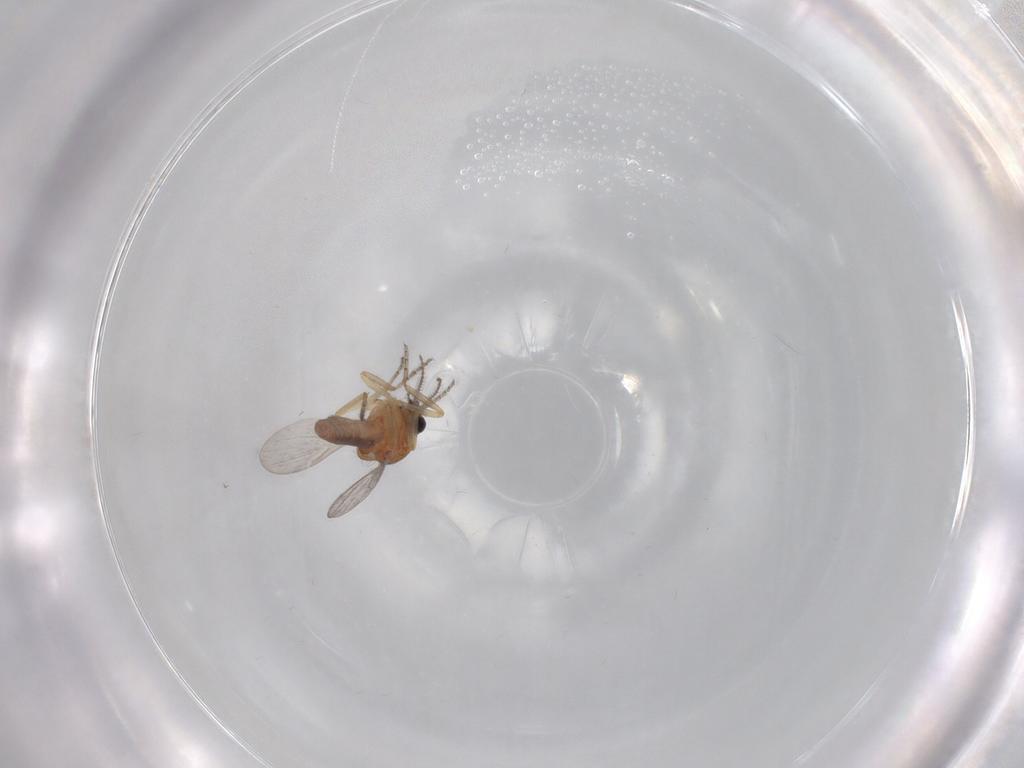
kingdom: Animalia
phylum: Arthropoda
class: Insecta
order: Diptera
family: Ceratopogonidae
